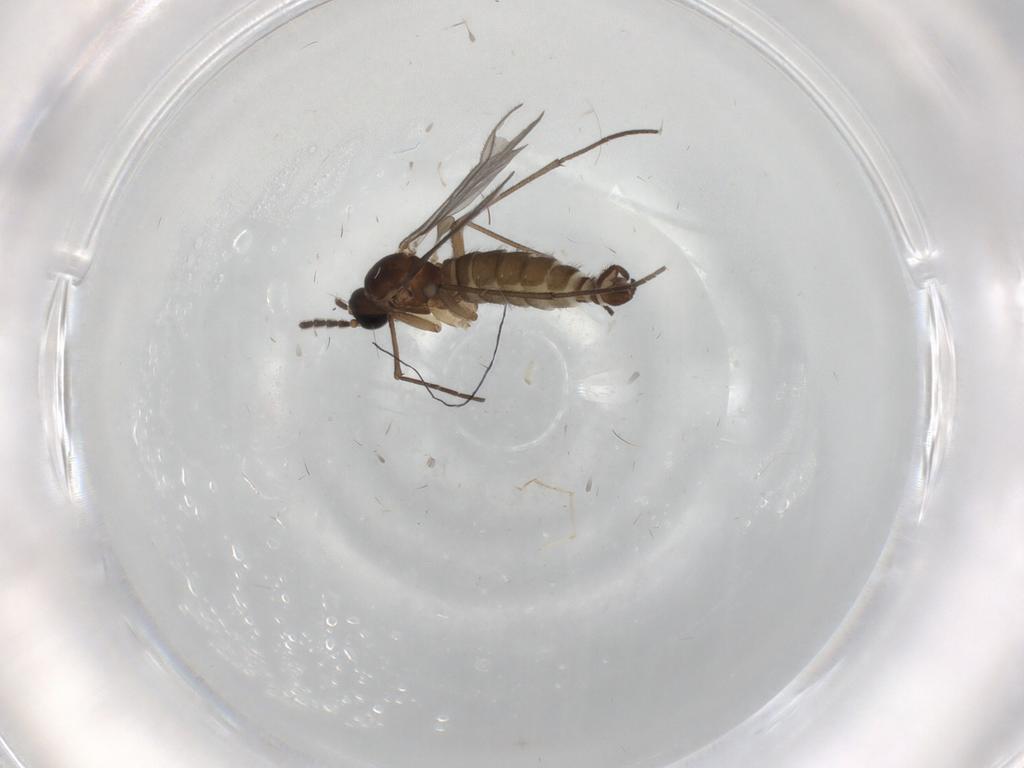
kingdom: Animalia
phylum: Arthropoda
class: Insecta
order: Diptera
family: Sciaridae
